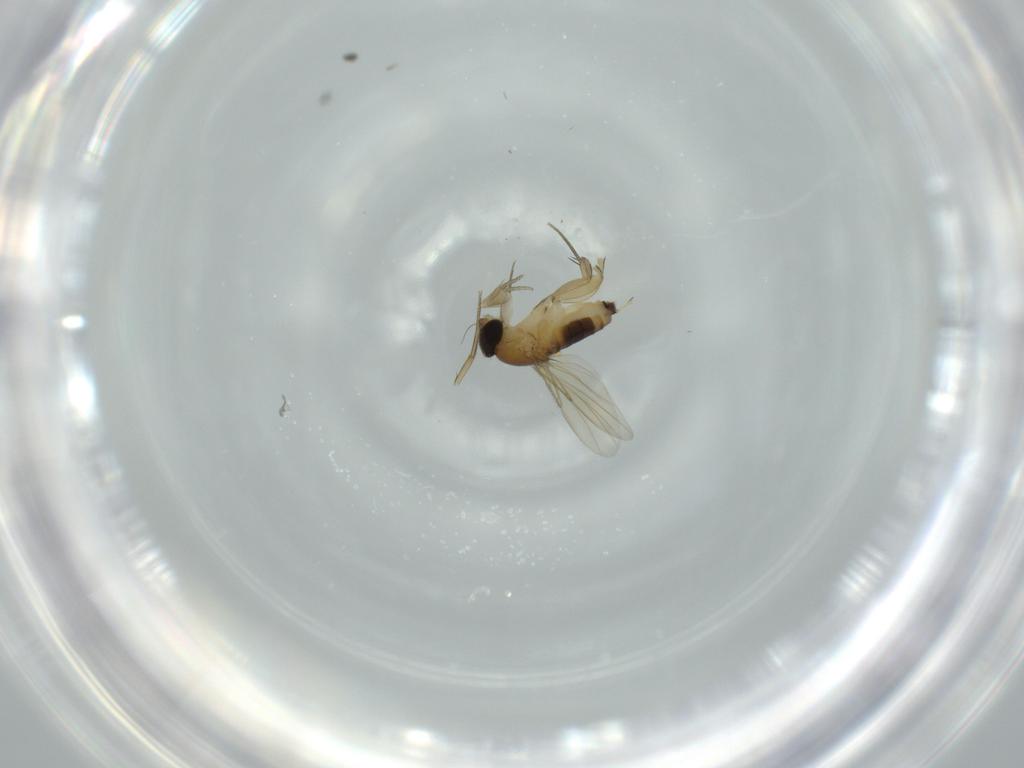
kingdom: Animalia
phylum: Arthropoda
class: Insecta
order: Diptera
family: Phoridae
